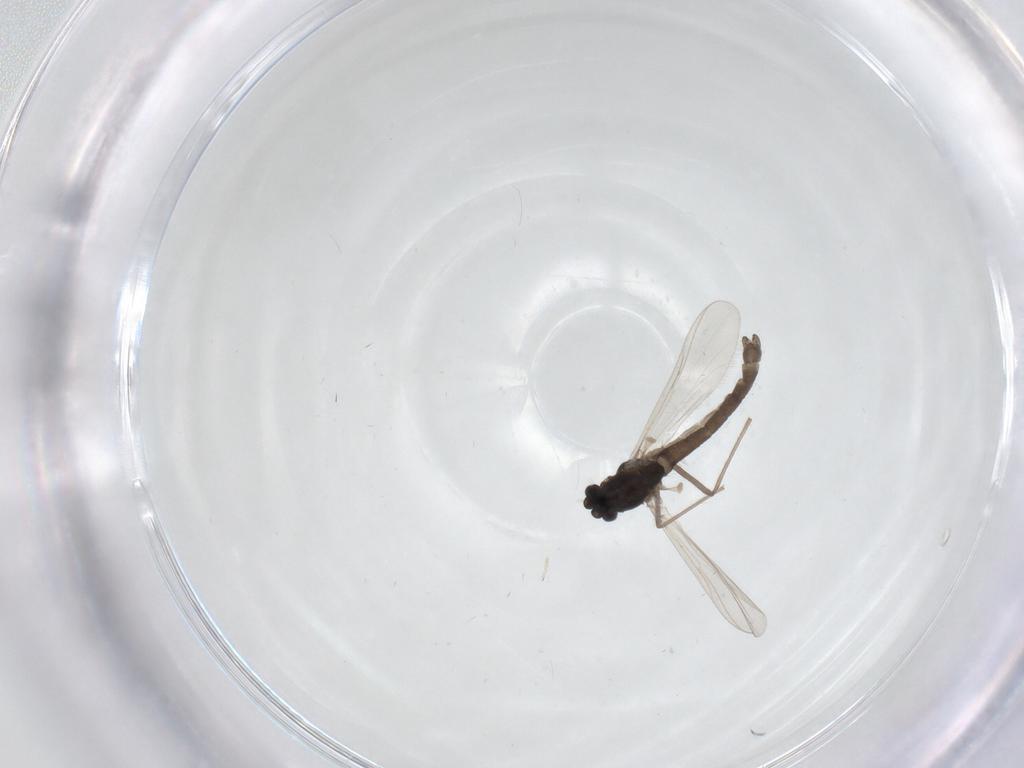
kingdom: Animalia
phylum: Arthropoda
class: Insecta
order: Diptera
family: Chironomidae
